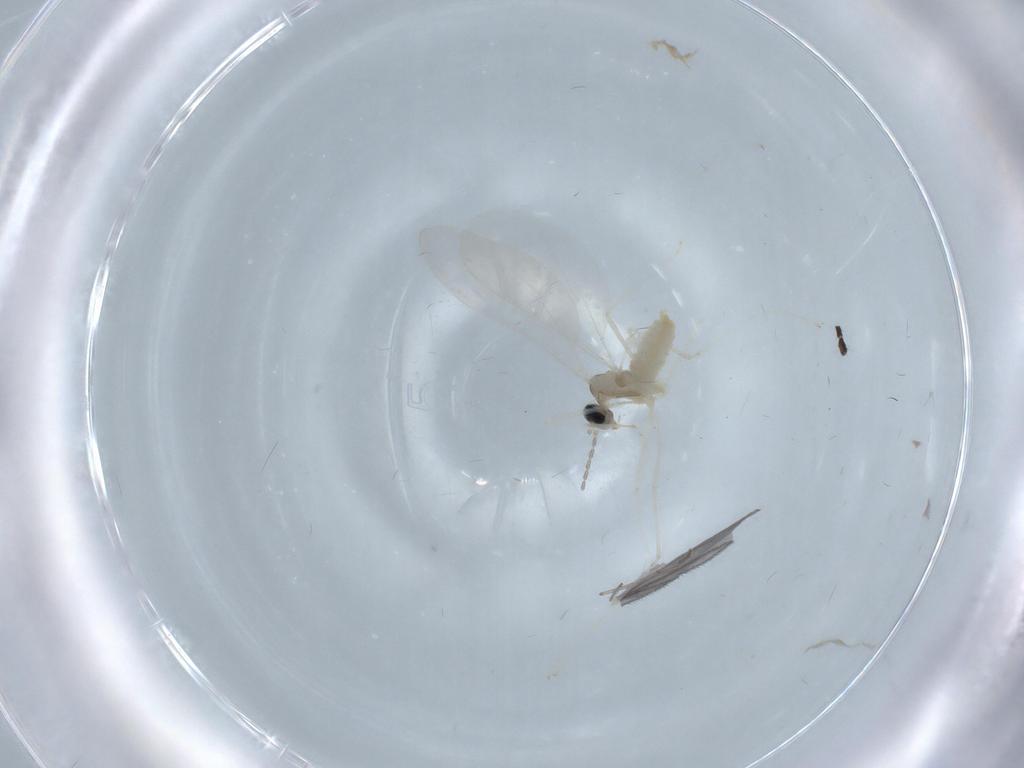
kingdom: Animalia
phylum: Arthropoda
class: Insecta
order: Diptera
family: Cecidomyiidae
